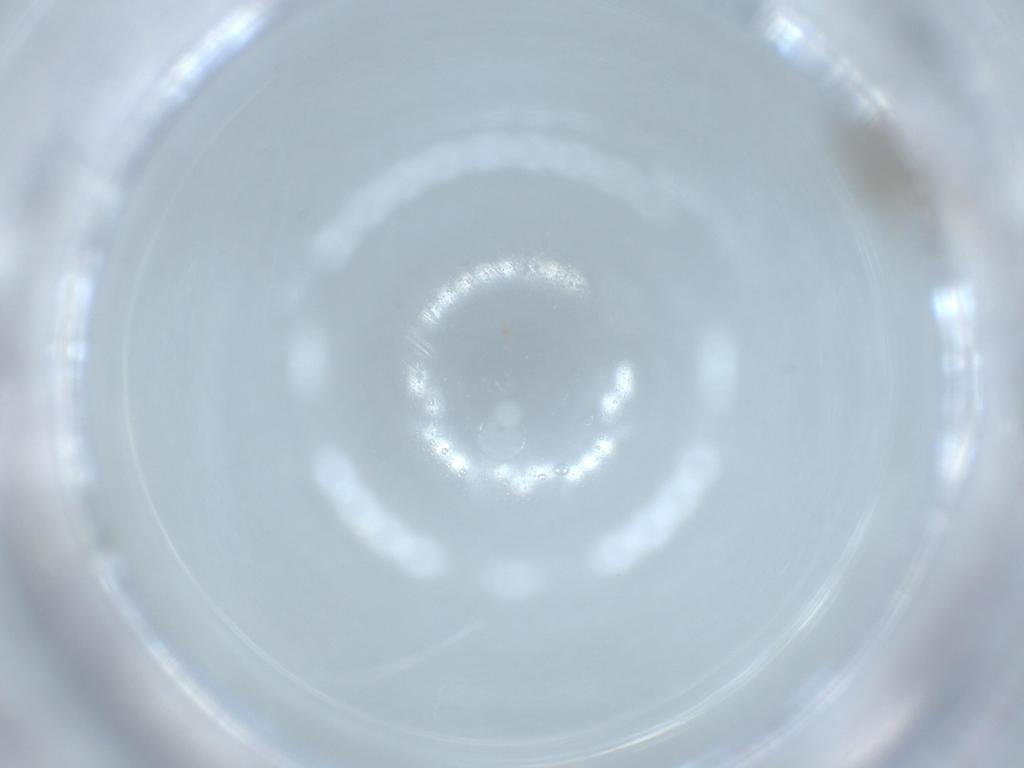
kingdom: Animalia
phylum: Arthropoda
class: Insecta
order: Diptera
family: Chironomidae
